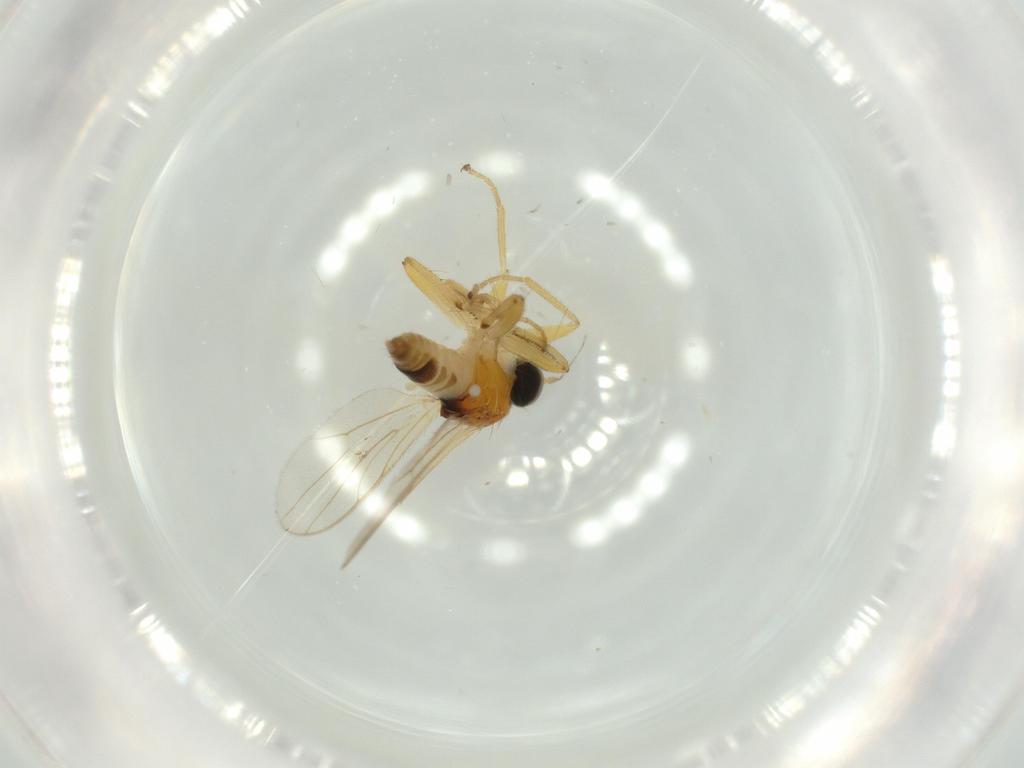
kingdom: Animalia
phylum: Arthropoda
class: Insecta
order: Diptera
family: Hybotidae
